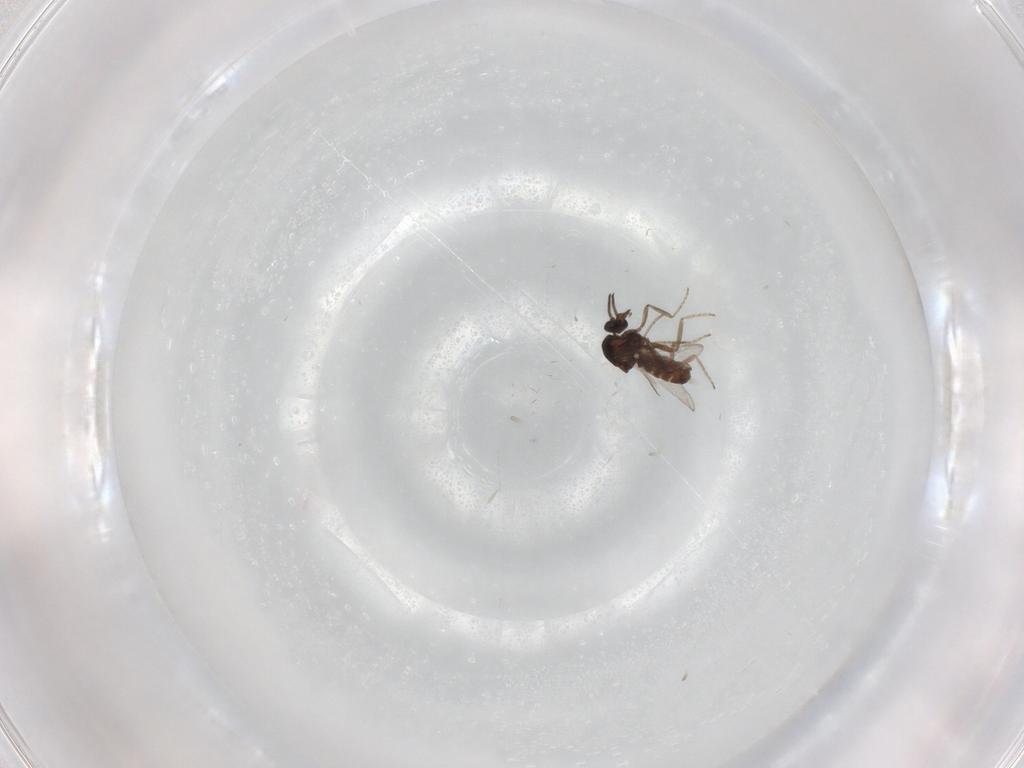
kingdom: Animalia
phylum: Arthropoda
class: Insecta
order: Diptera
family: Ceratopogonidae
